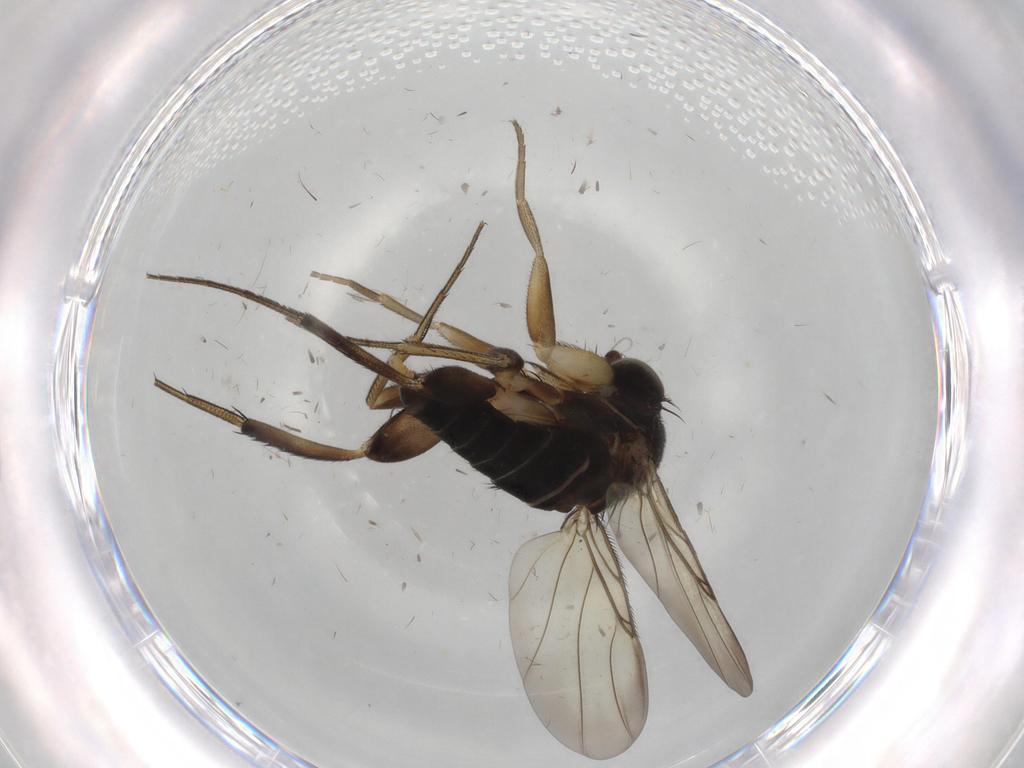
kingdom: Animalia
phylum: Arthropoda
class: Insecta
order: Diptera
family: Phoridae
